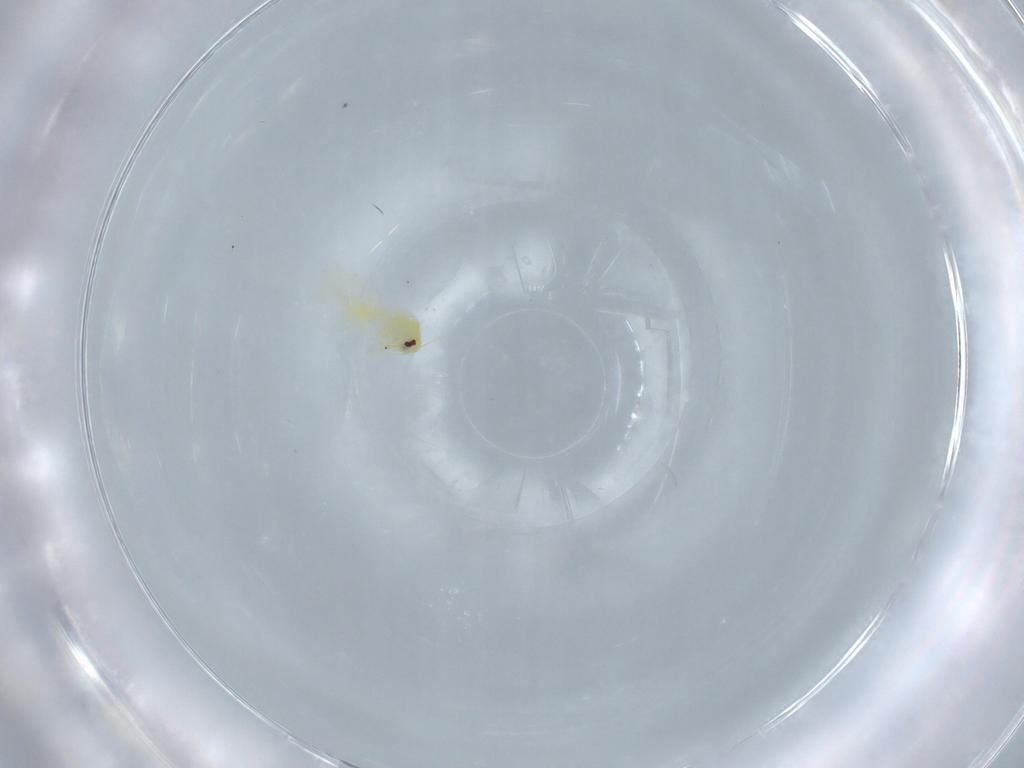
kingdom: Animalia
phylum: Arthropoda
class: Insecta
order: Hemiptera
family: Aleyrodidae
